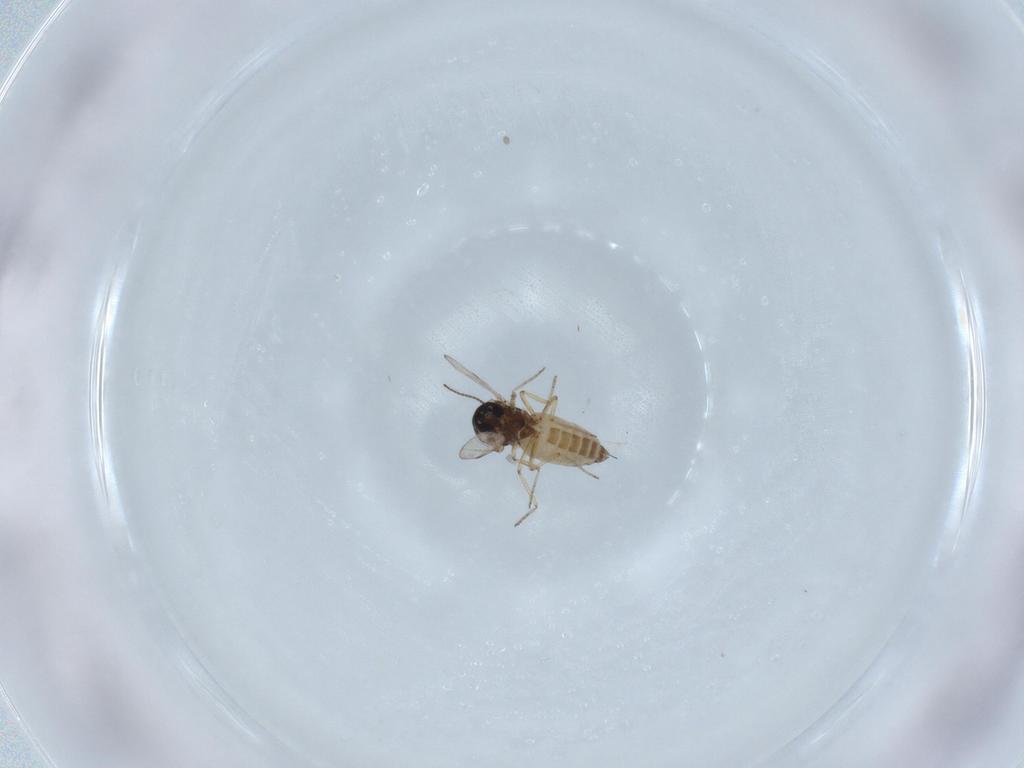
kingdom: Animalia
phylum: Arthropoda
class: Insecta
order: Diptera
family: Ceratopogonidae
